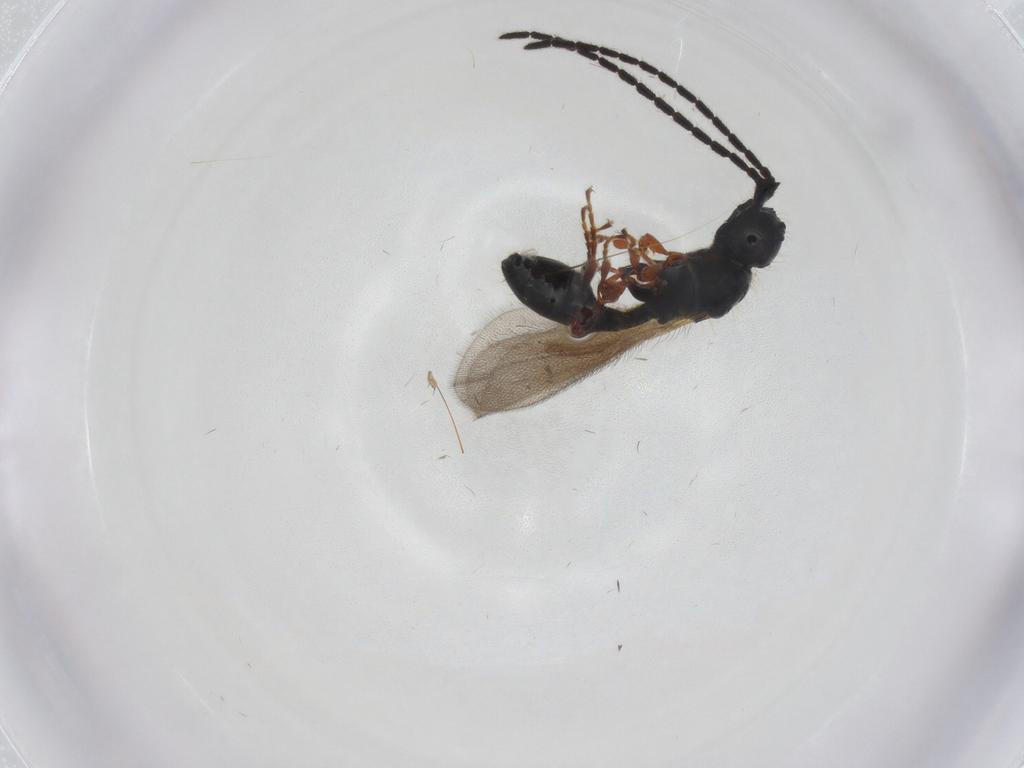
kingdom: Animalia
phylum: Arthropoda
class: Insecta
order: Hymenoptera
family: Diapriidae
